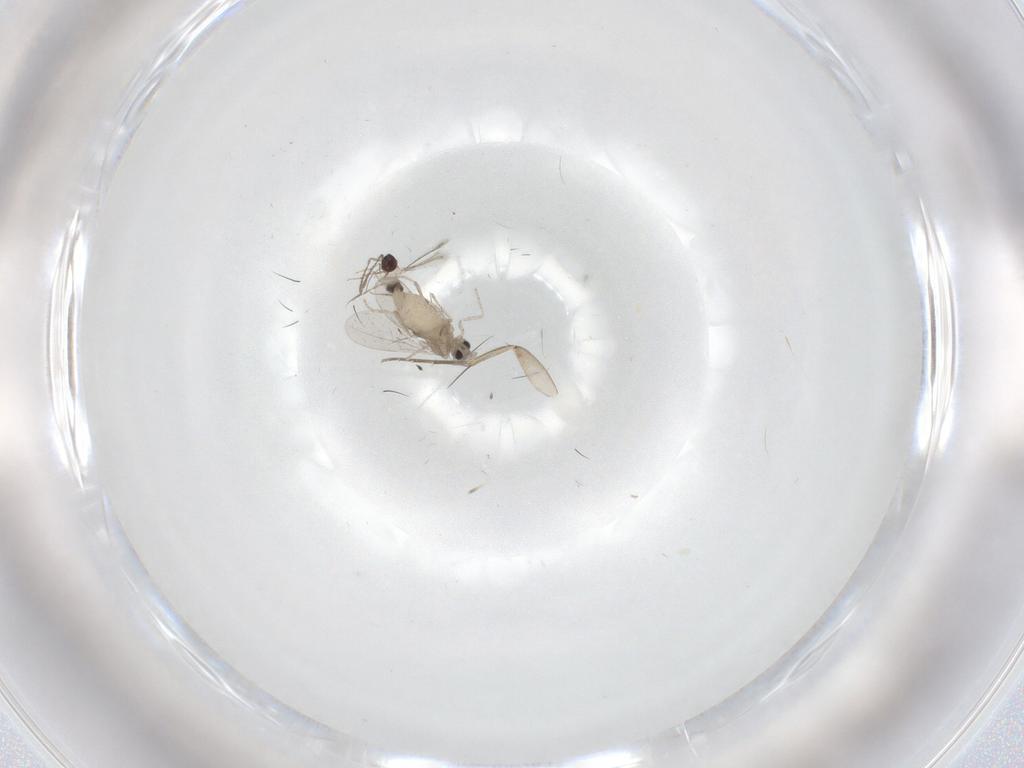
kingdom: Animalia
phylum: Arthropoda
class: Insecta
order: Diptera
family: Cecidomyiidae
